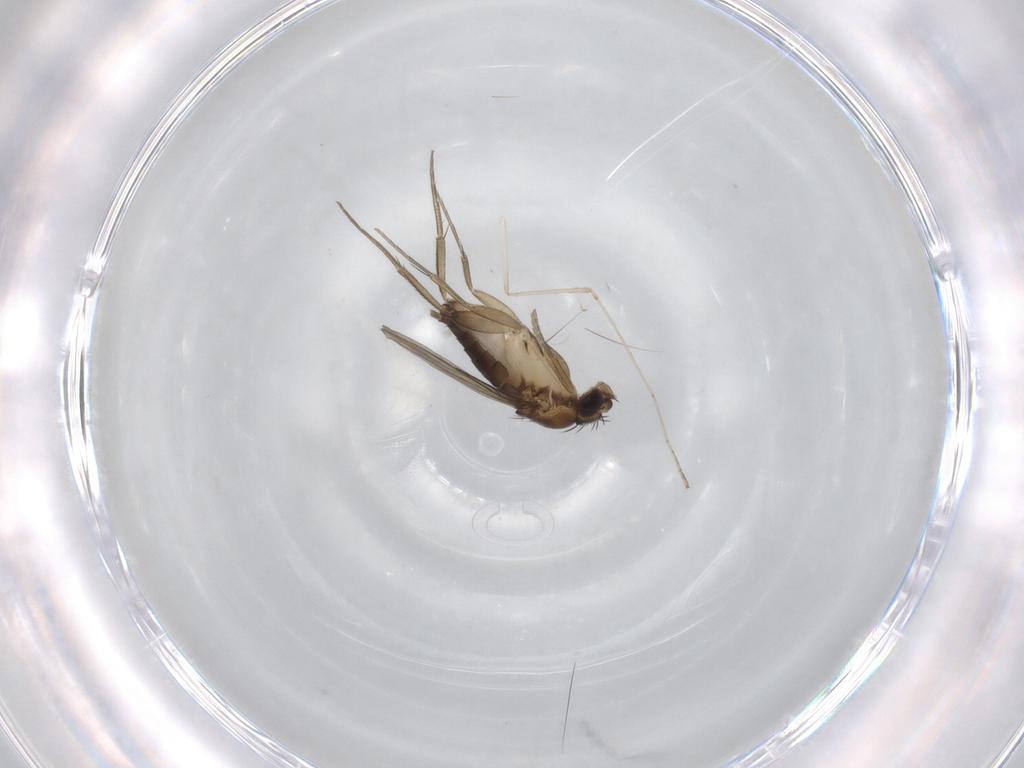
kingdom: Animalia
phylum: Arthropoda
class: Insecta
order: Diptera
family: Phoridae
